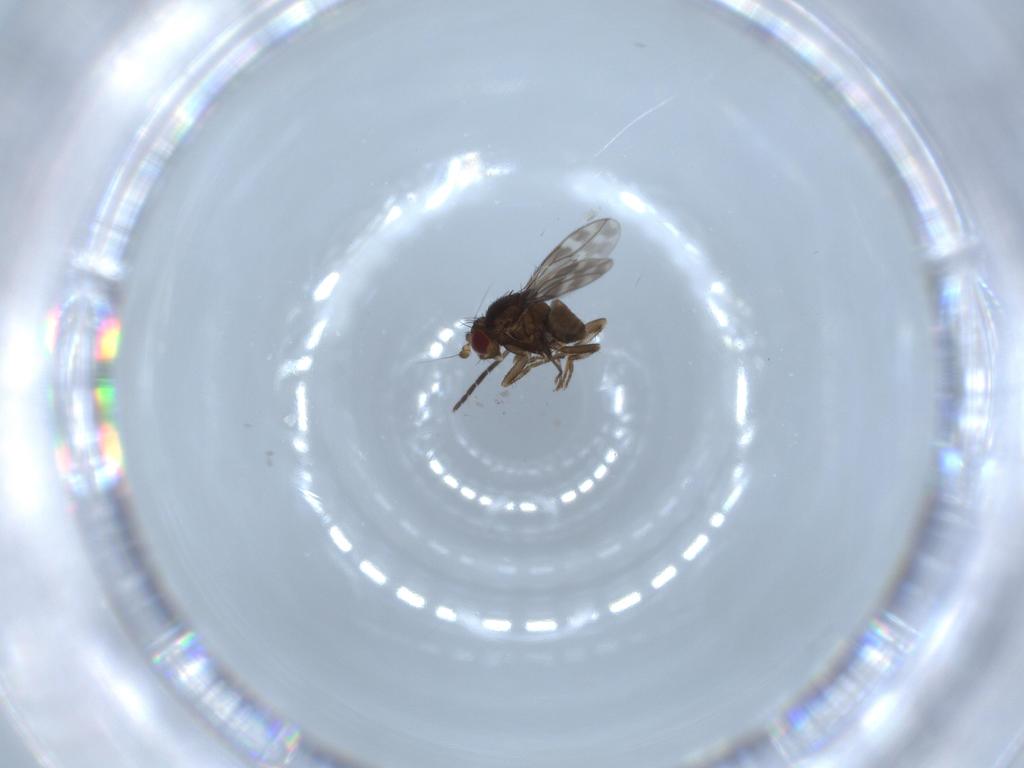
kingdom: Animalia
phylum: Arthropoda
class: Insecta
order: Diptera
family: Sphaeroceridae
